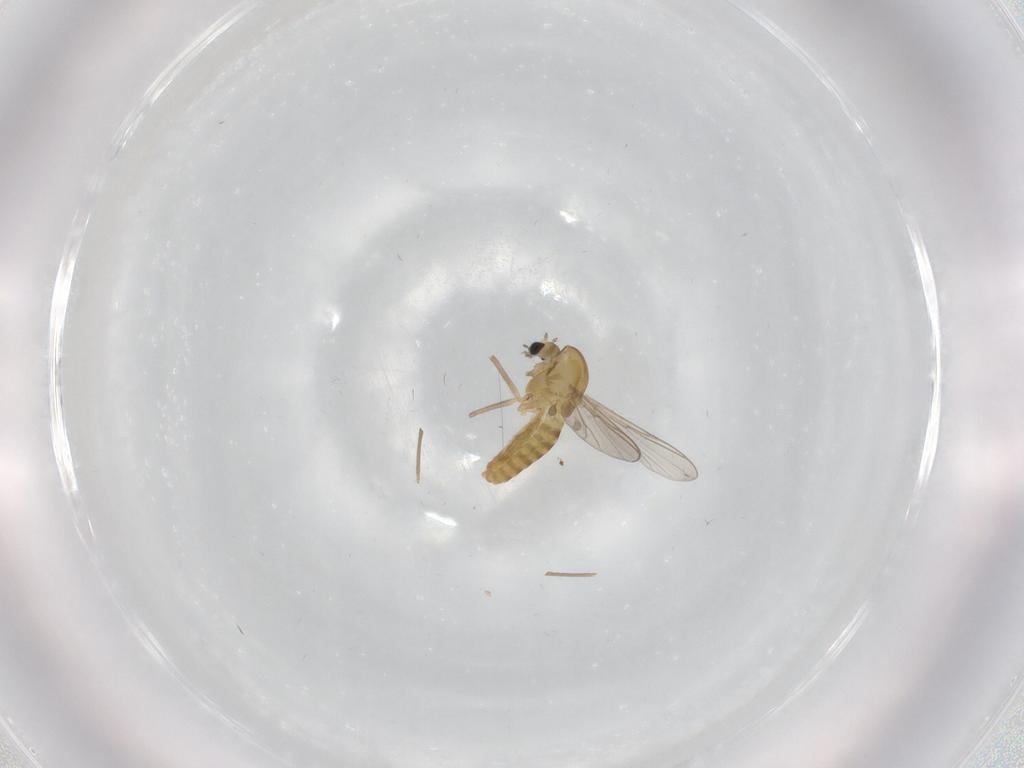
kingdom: Animalia
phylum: Arthropoda
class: Insecta
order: Diptera
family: Chironomidae
